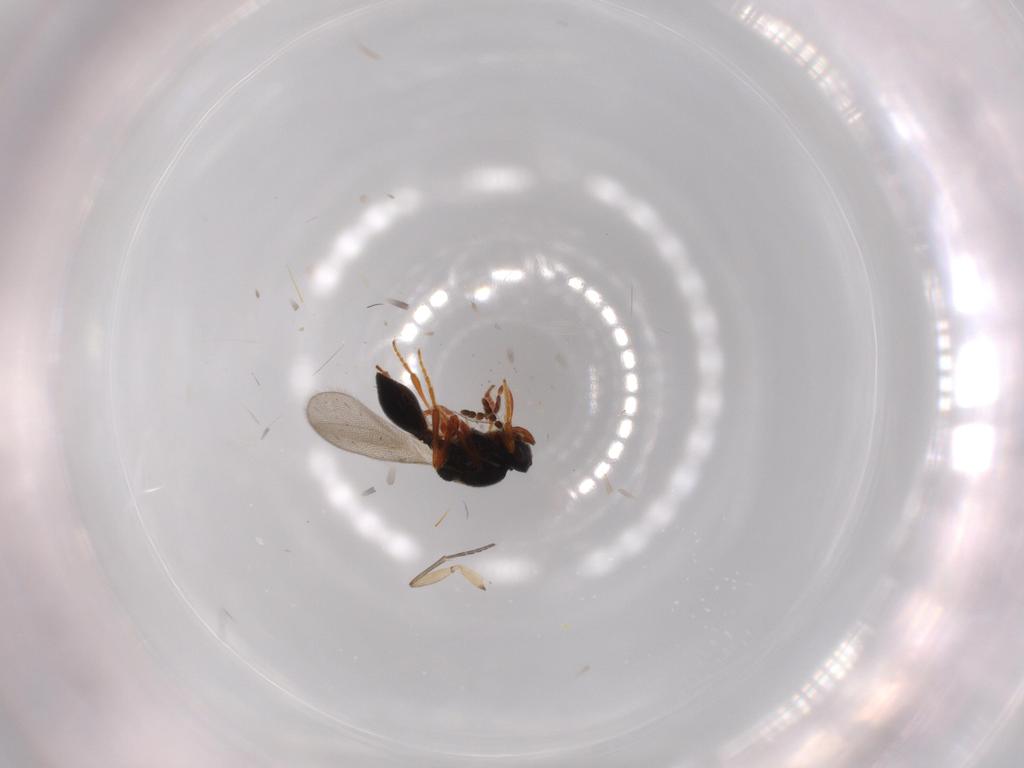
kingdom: Animalia
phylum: Arthropoda
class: Insecta
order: Hymenoptera
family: Platygastridae
